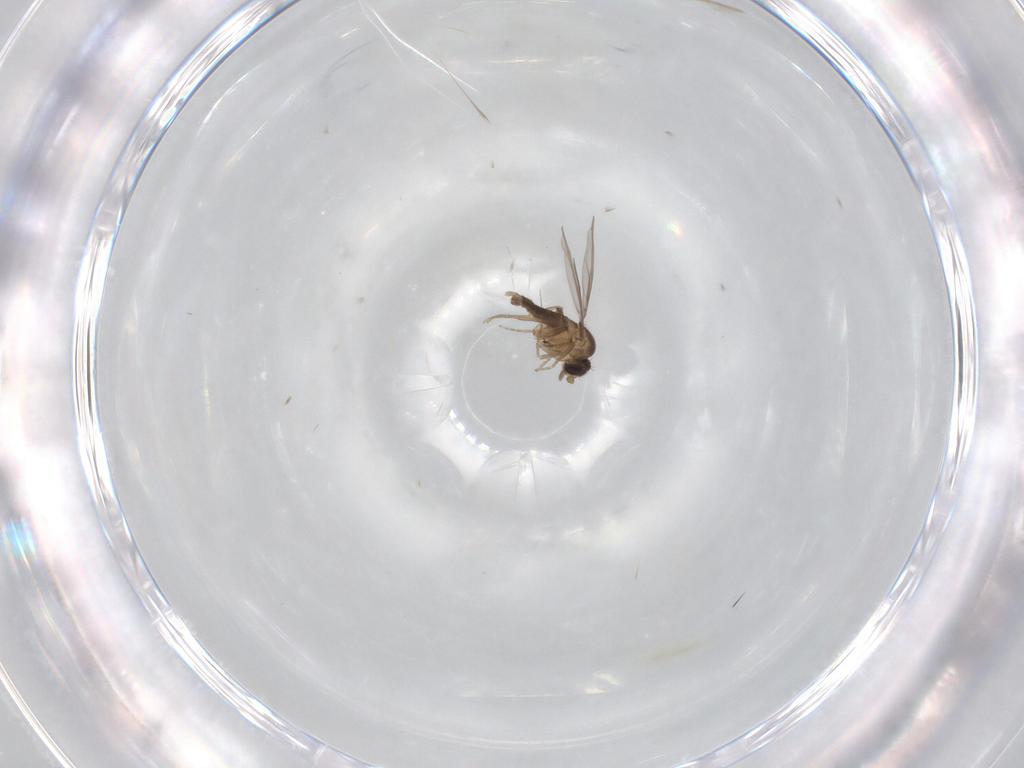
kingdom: Animalia
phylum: Arthropoda
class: Insecta
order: Diptera
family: Phoridae
